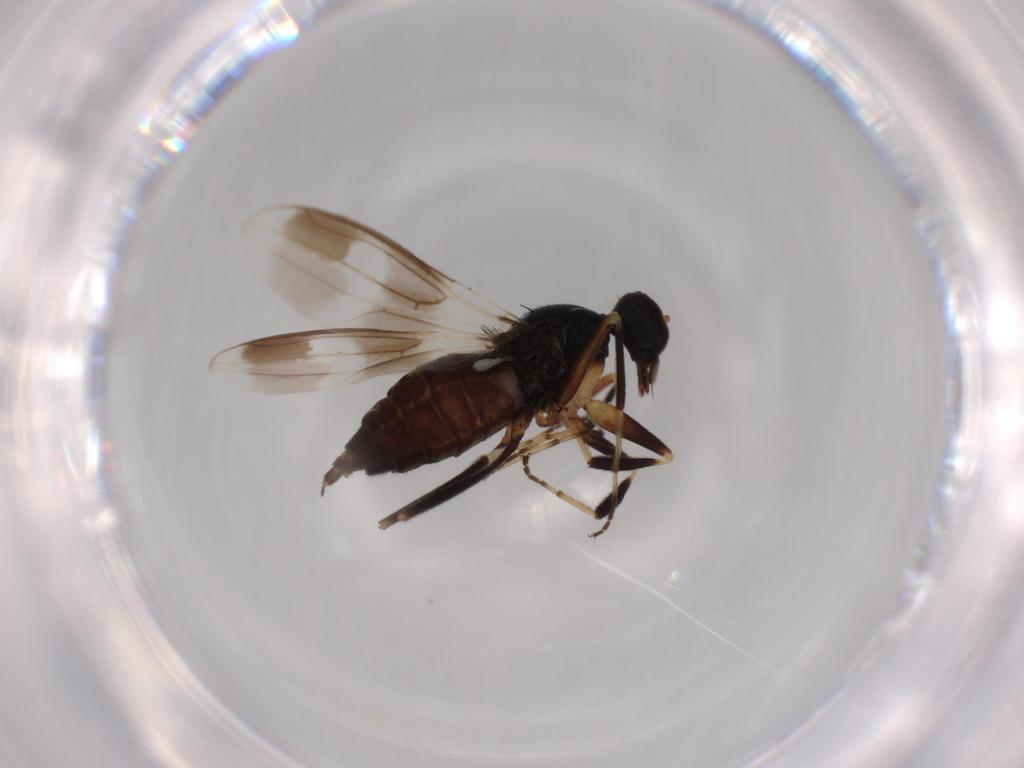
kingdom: Animalia
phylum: Arthropoda
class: Insecta
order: Diptera
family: Hybotidae
